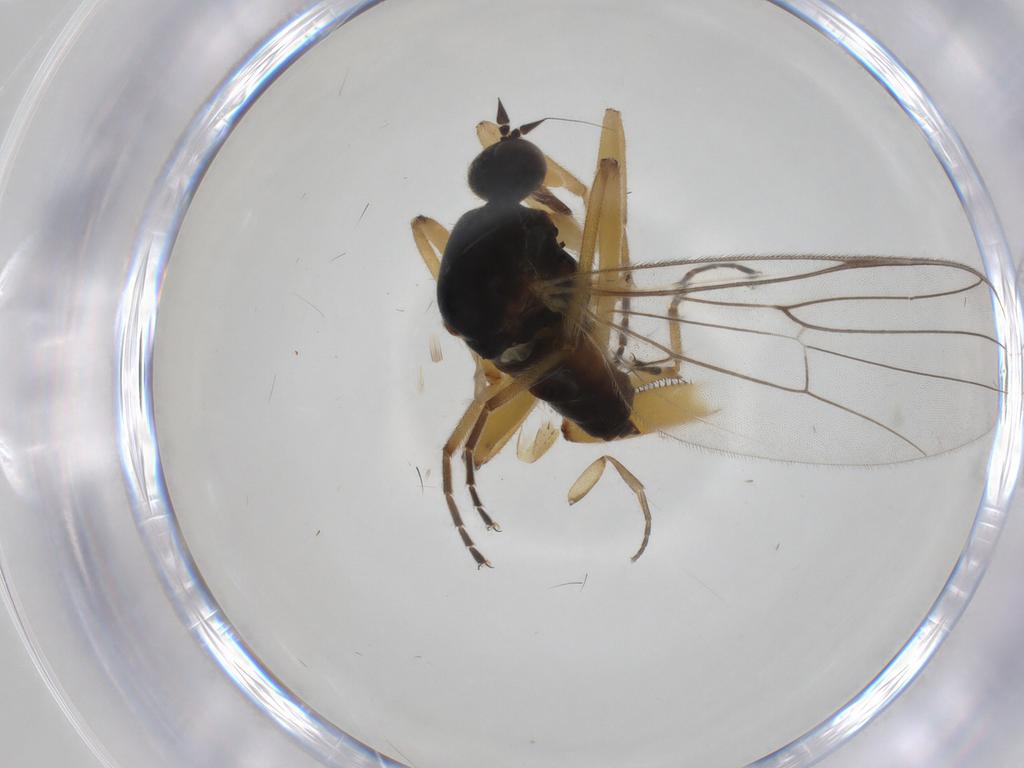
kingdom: Animalia
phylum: Arthropoda
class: Insecta
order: Diptera
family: Hybotidae
